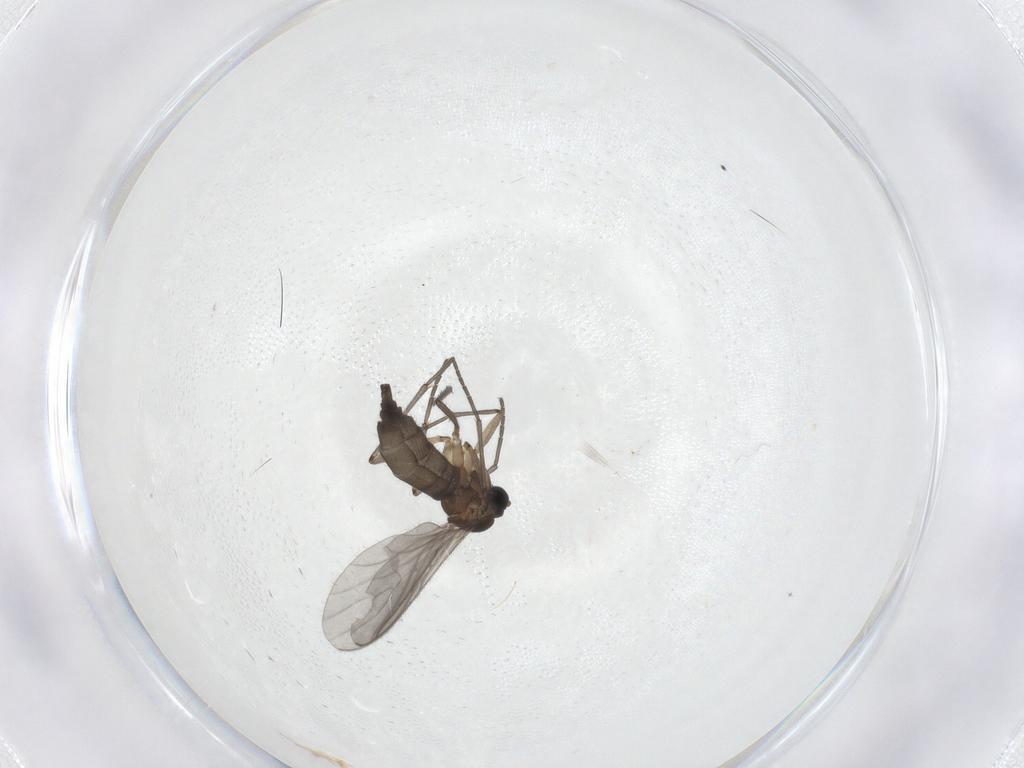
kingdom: Animalia
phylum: Arthropoda
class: Insecta
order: Diptera
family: Sciaridae
